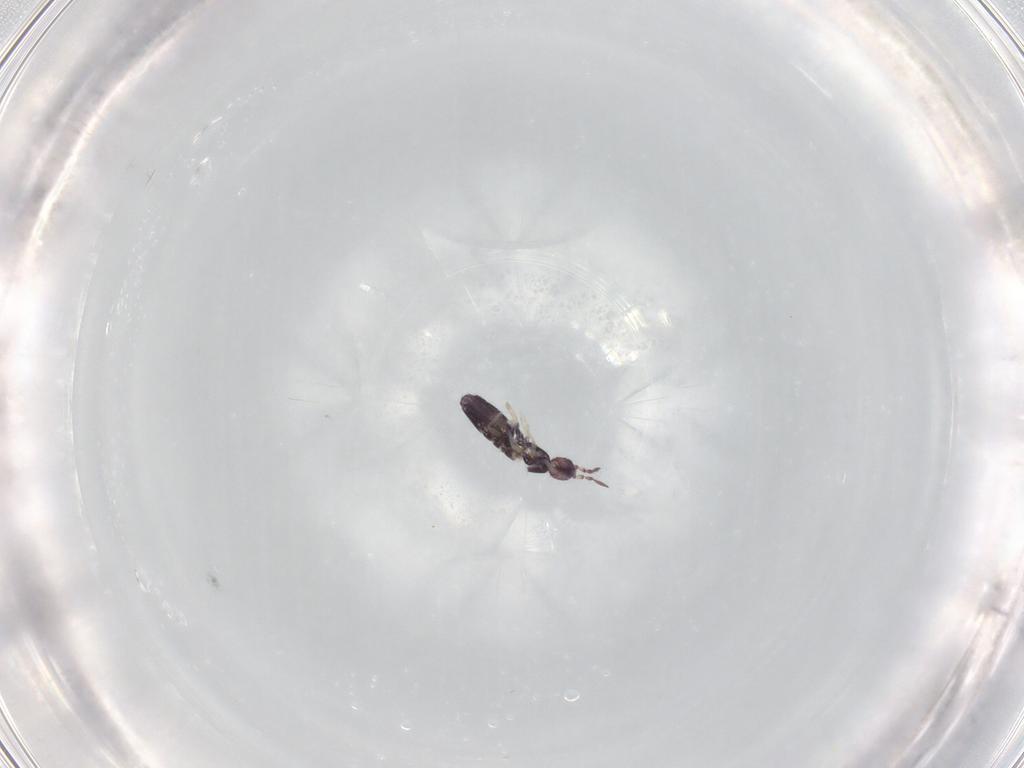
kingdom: Animalia
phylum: Arthropoda
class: Collembola
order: Entomobryomorpha
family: Entomobryidae
